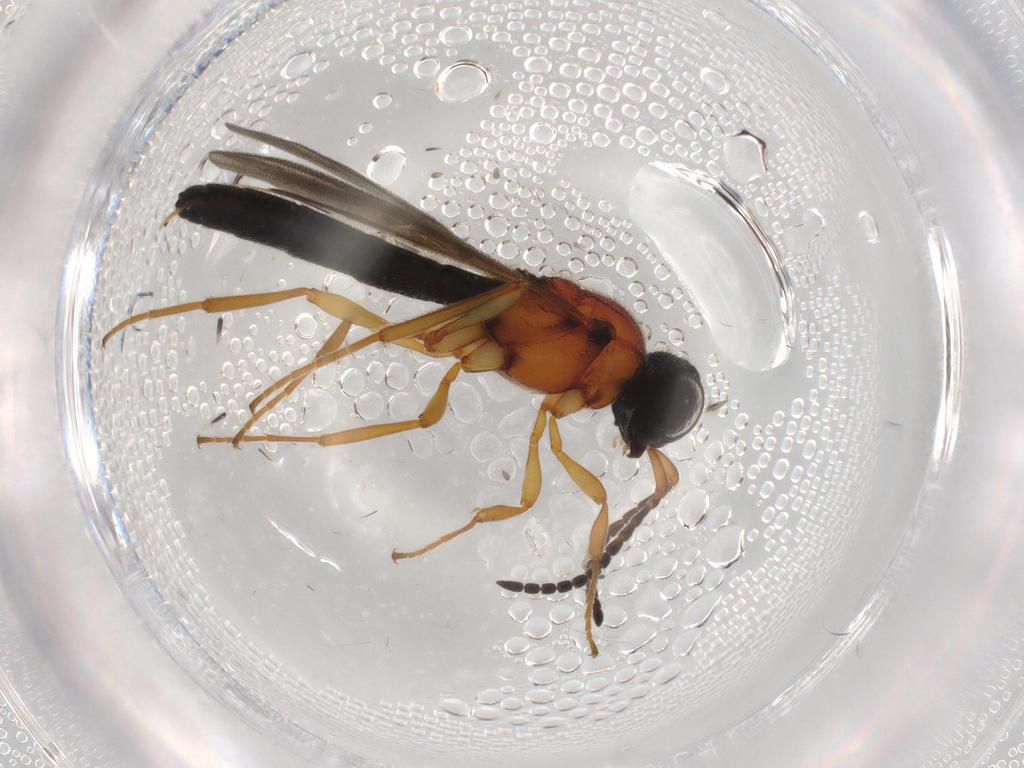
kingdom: Animalia
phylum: Arthropoda
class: Insecta
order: Hymenoptera
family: Scelionidae
